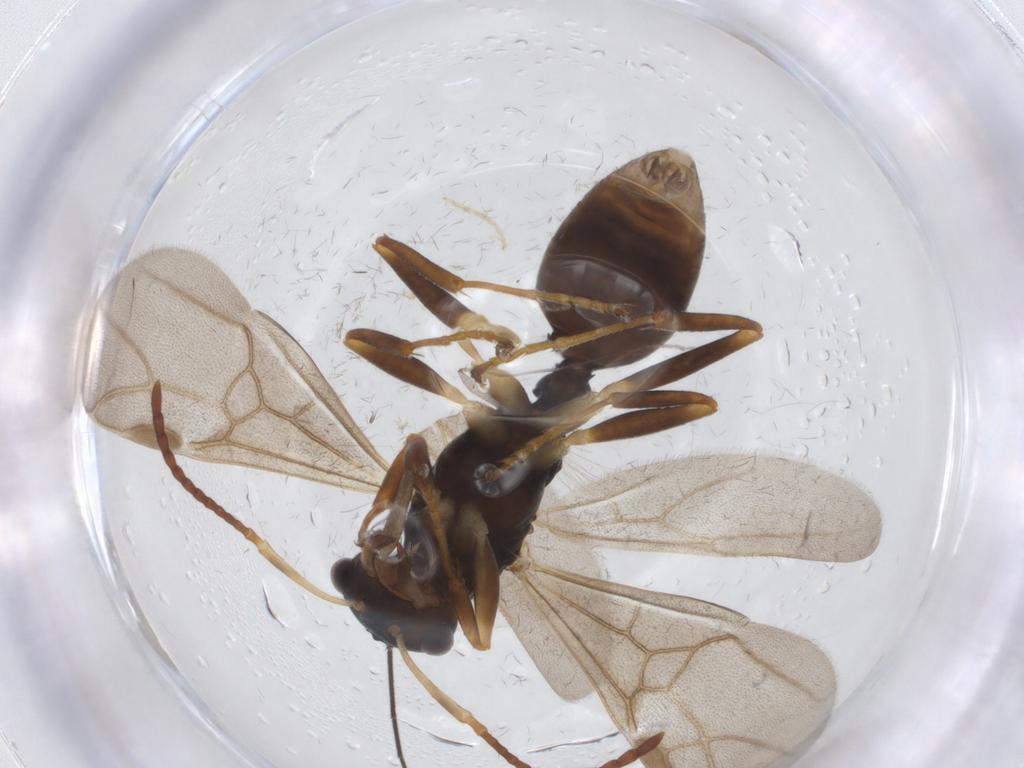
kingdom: Animalia
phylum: Arthropoda
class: Insecta
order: Hymenoptera
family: Formicidae
